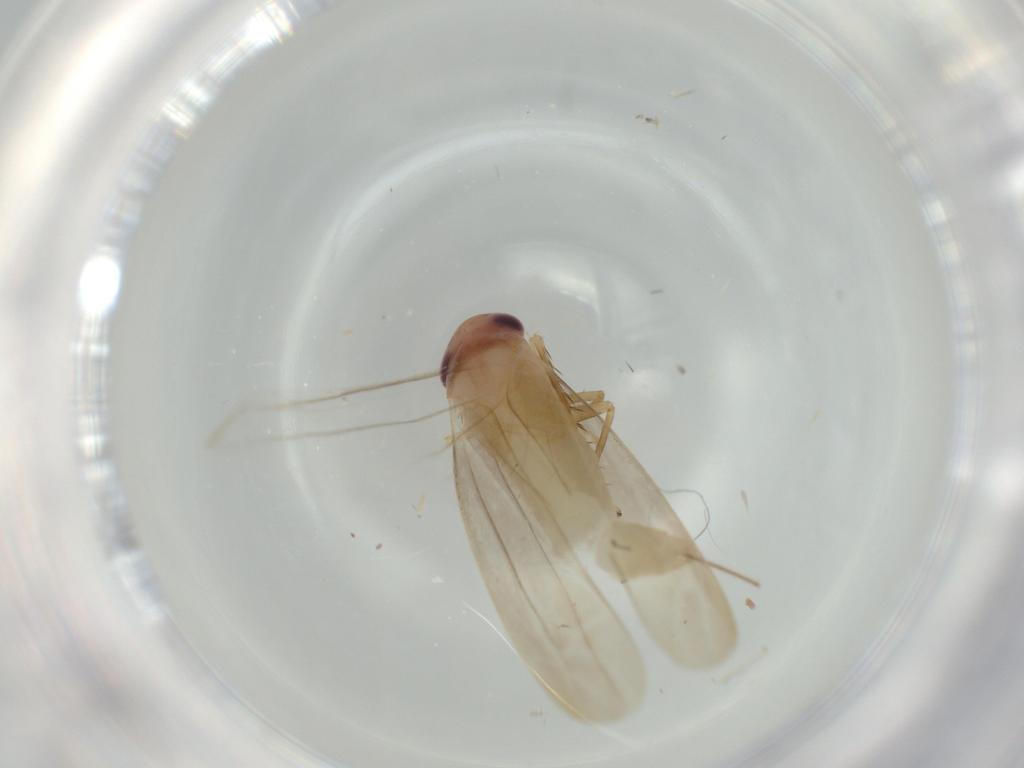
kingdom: Animalia
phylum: Arthropoda
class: Insecta
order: Hemiptera
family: Cicadellidae
